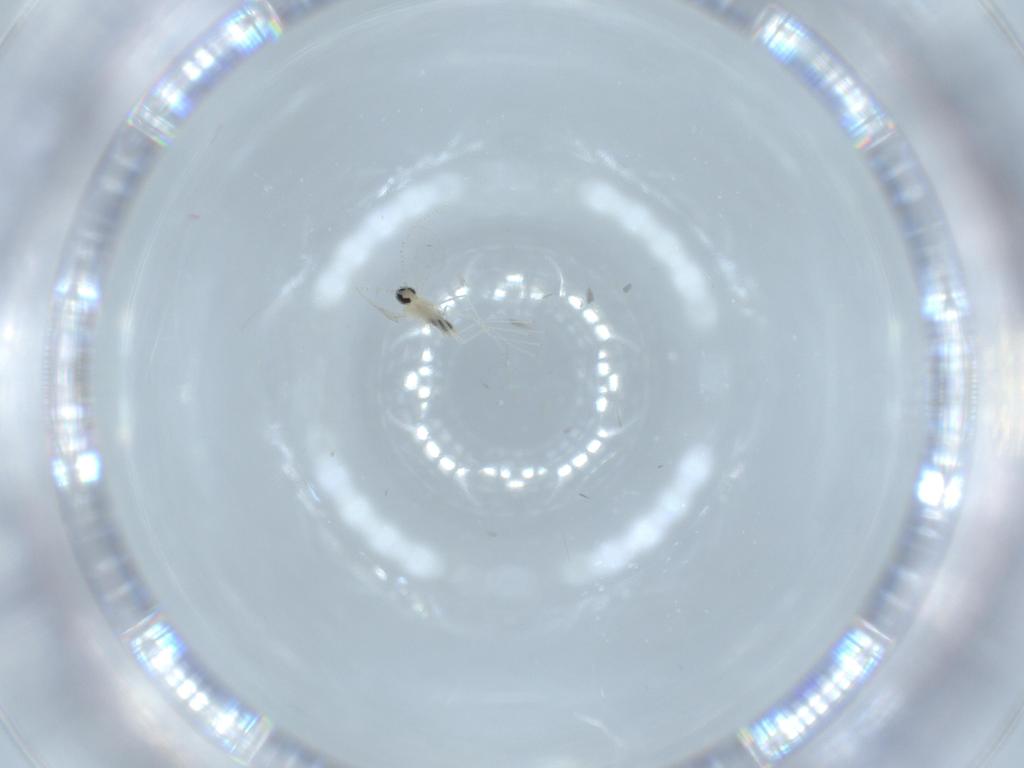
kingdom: Animalia
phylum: Arthropoda
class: Insecta
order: Diptera
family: Cecidomyiidae
